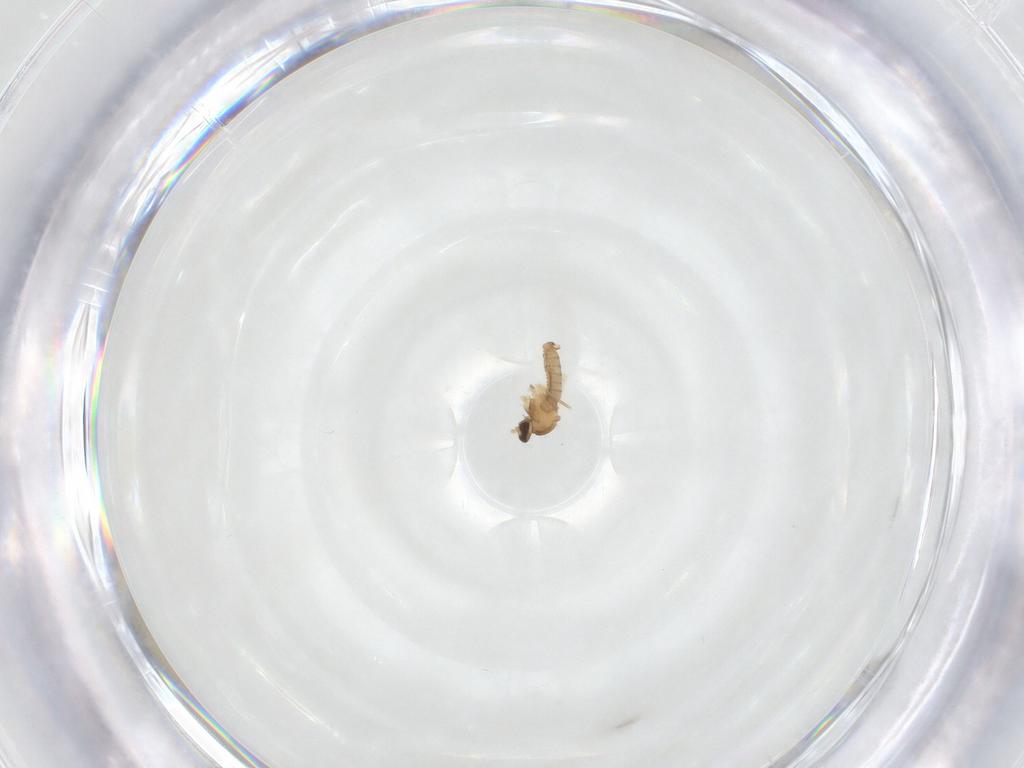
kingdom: Animalia
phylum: Arthropoda
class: Insecta
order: Diptera
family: Cecidomyiidae
